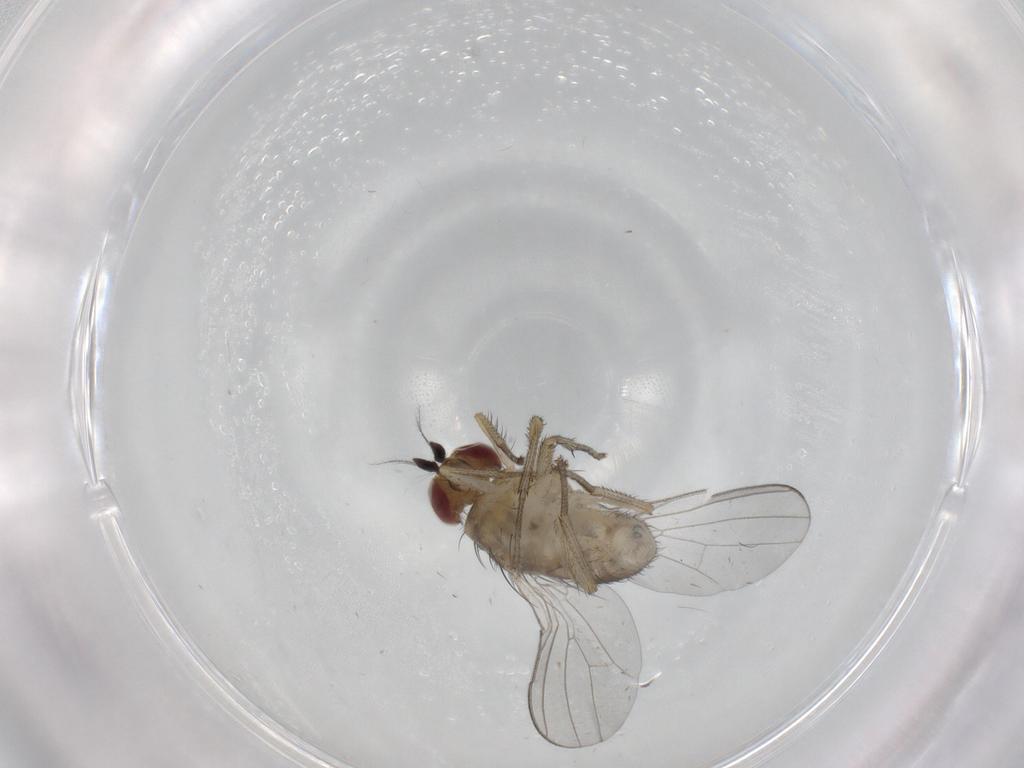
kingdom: Animalia
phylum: Arthropoda
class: Insecta
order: Diptera
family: Lauxaniidae
